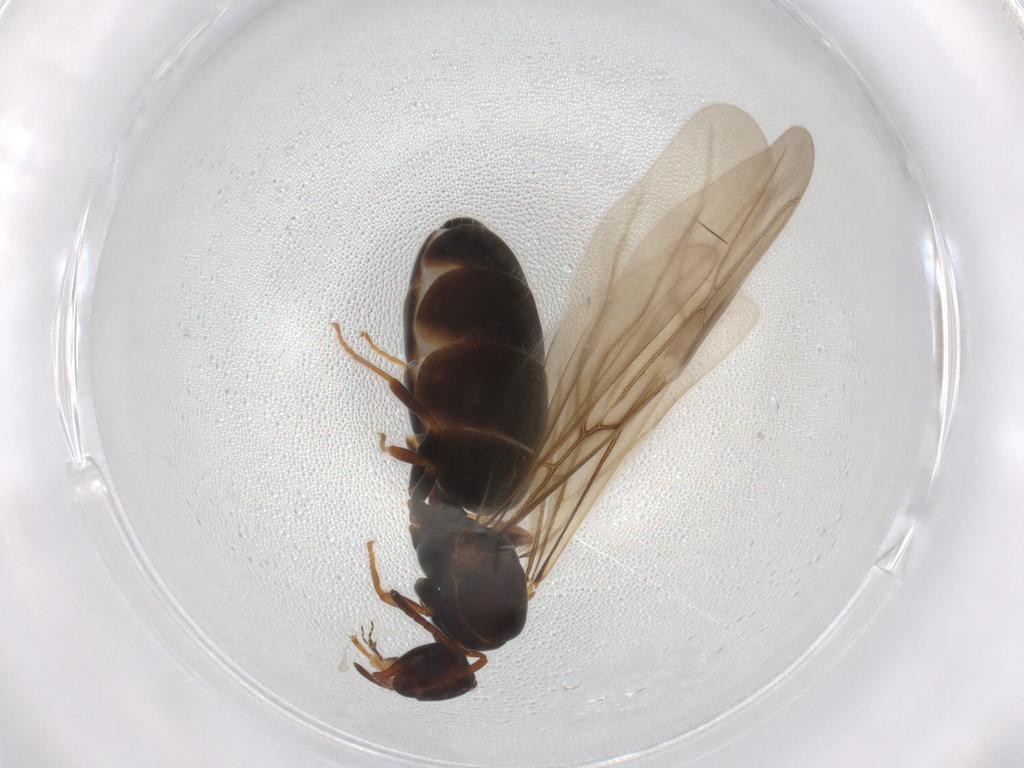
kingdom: Animalia
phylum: Arthropoda
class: Insecta
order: Hymenoptera
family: Formicidae
